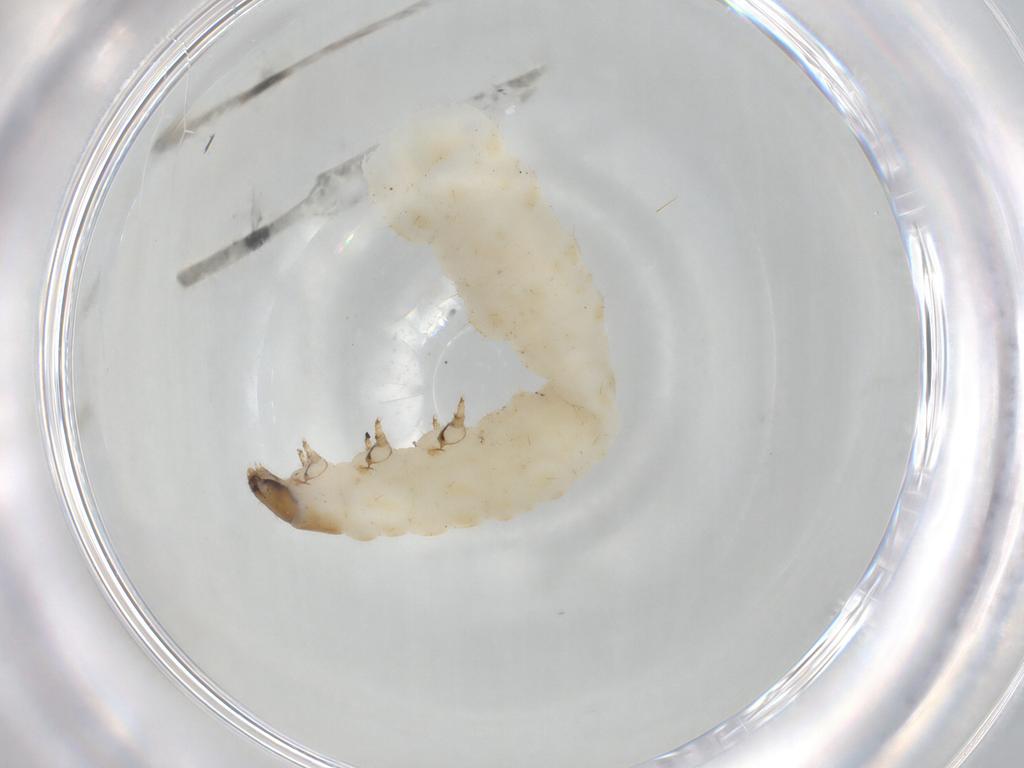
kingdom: Animalia
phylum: Arthropoda
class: Insecta
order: Coleoptera
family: Chrysomelidae
